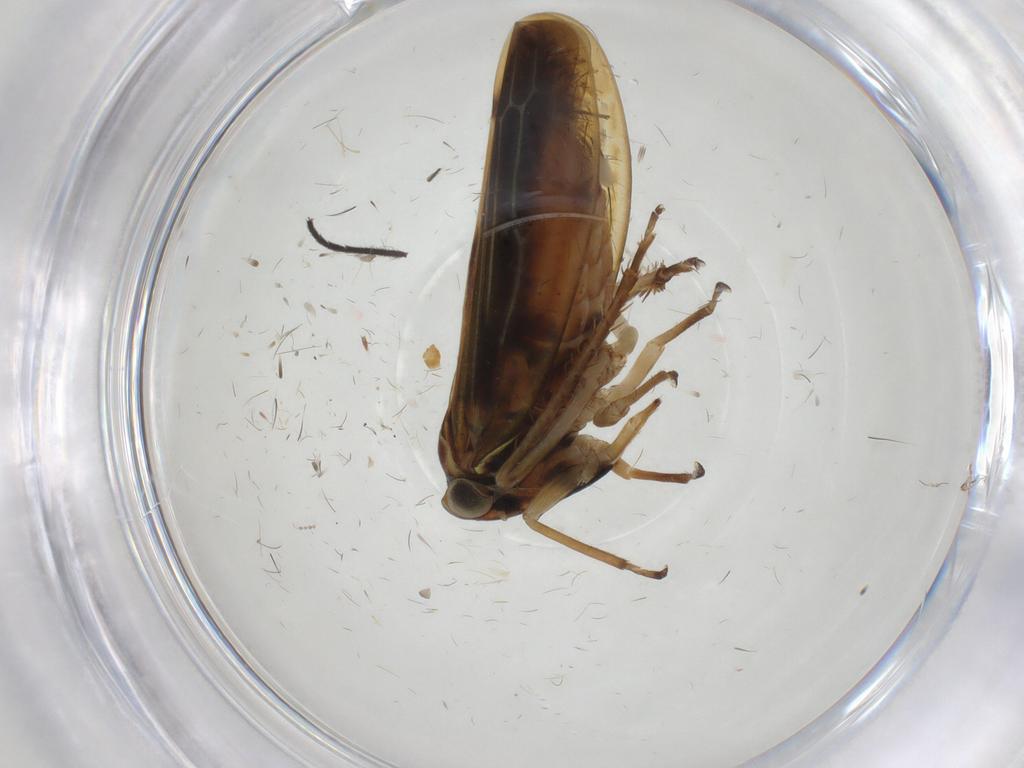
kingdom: Animalia
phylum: Arthropoda
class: Insecta
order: Hemiptera
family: Cicadellidae
